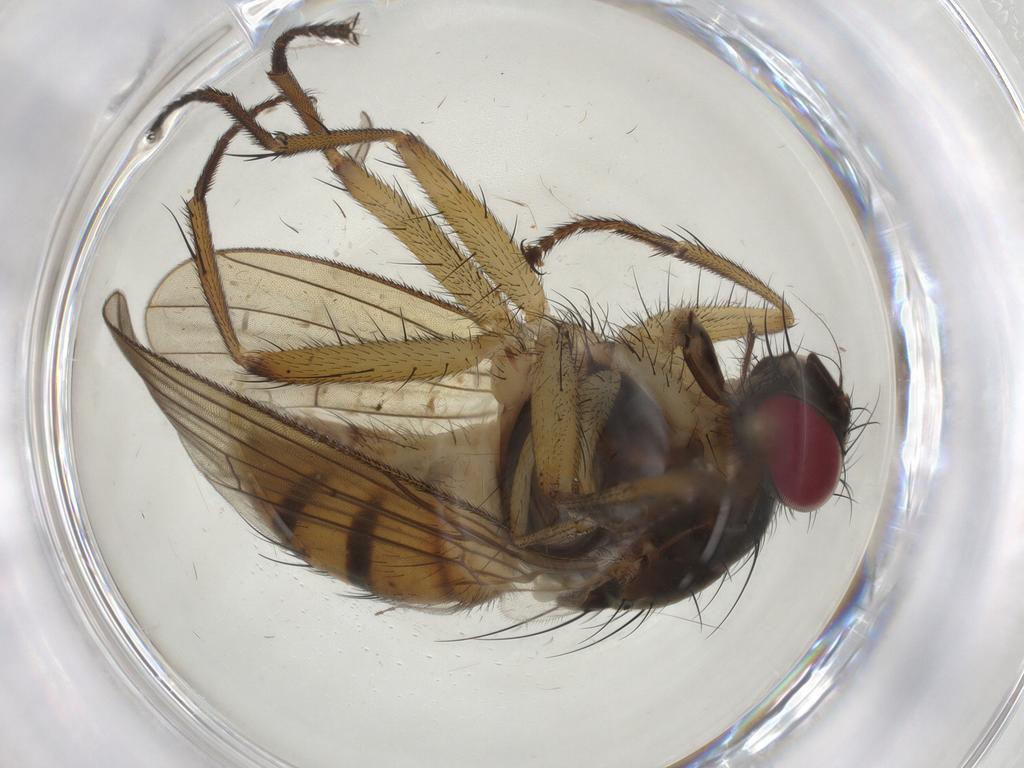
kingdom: Animalia
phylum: Arthropoda
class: Insecta
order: Diptera
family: Muscidae
